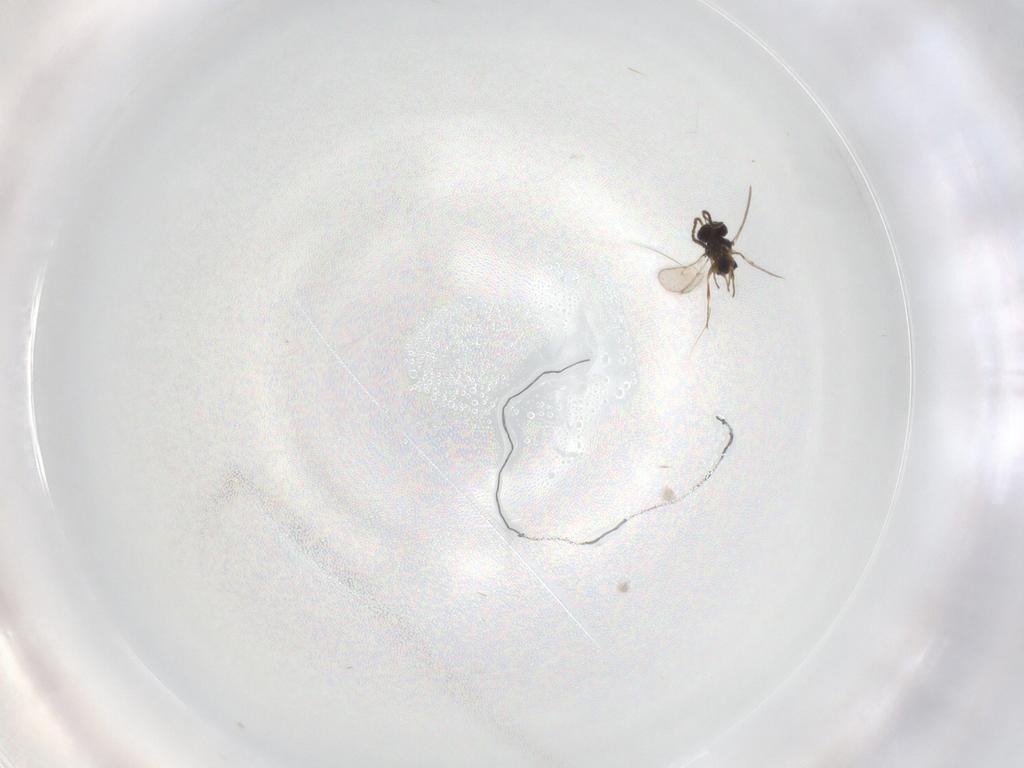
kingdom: Animalia
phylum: Arthropoda
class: Insecta
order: Hymenoptera
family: Scelionidae
